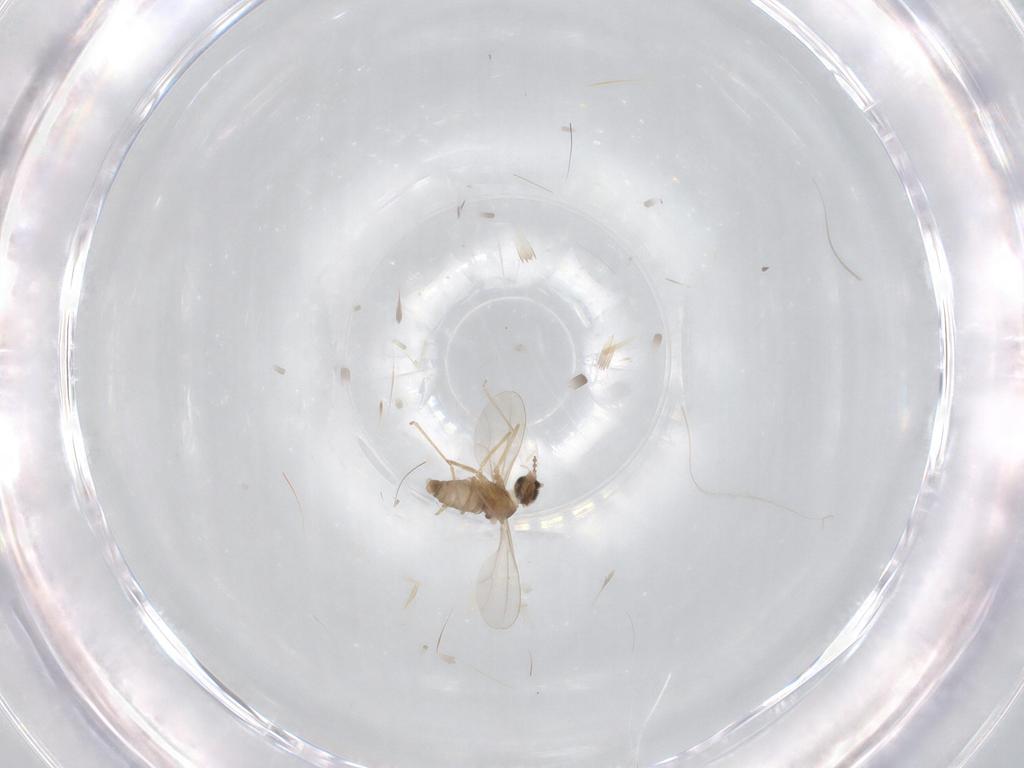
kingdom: Animalia
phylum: Arthropoda
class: Insecta
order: Diptera
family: Cecidomyiidae
